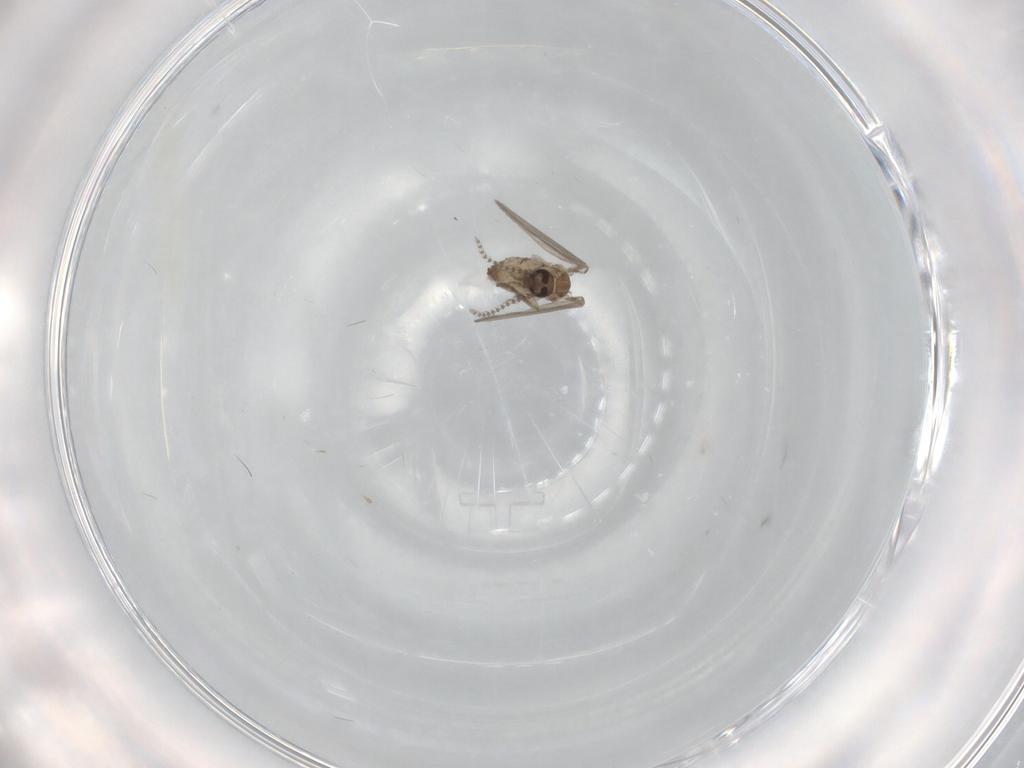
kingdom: Animalia
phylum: Arthropoda
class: Insecta
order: Diptera
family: Psychodidae
